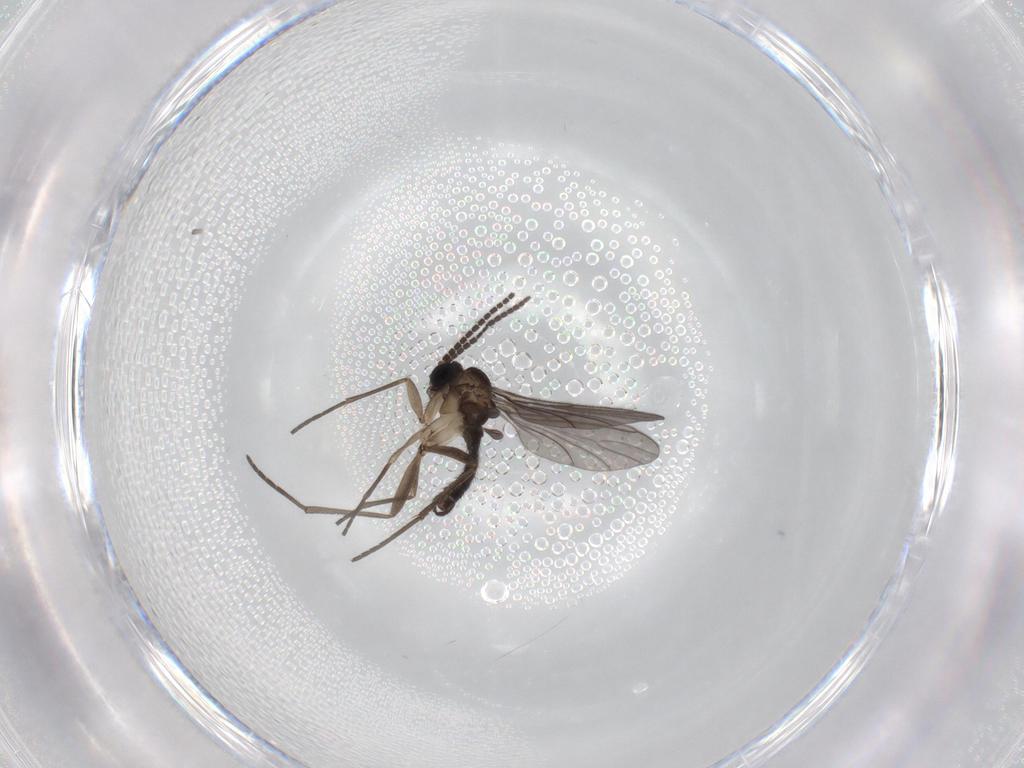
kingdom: Animalia
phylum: Arthropoda
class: Insecta
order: Diptera
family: Sciaridae
